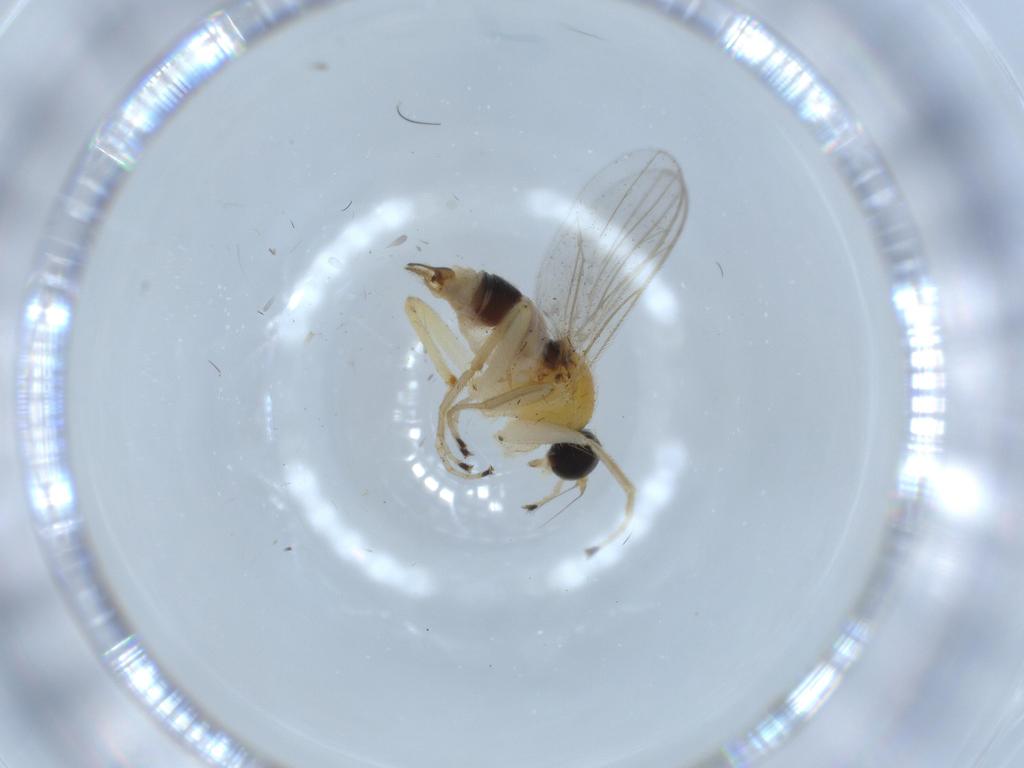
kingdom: Animalia
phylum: Arthropoda
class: Insecta
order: Diptera
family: Hybotidae
